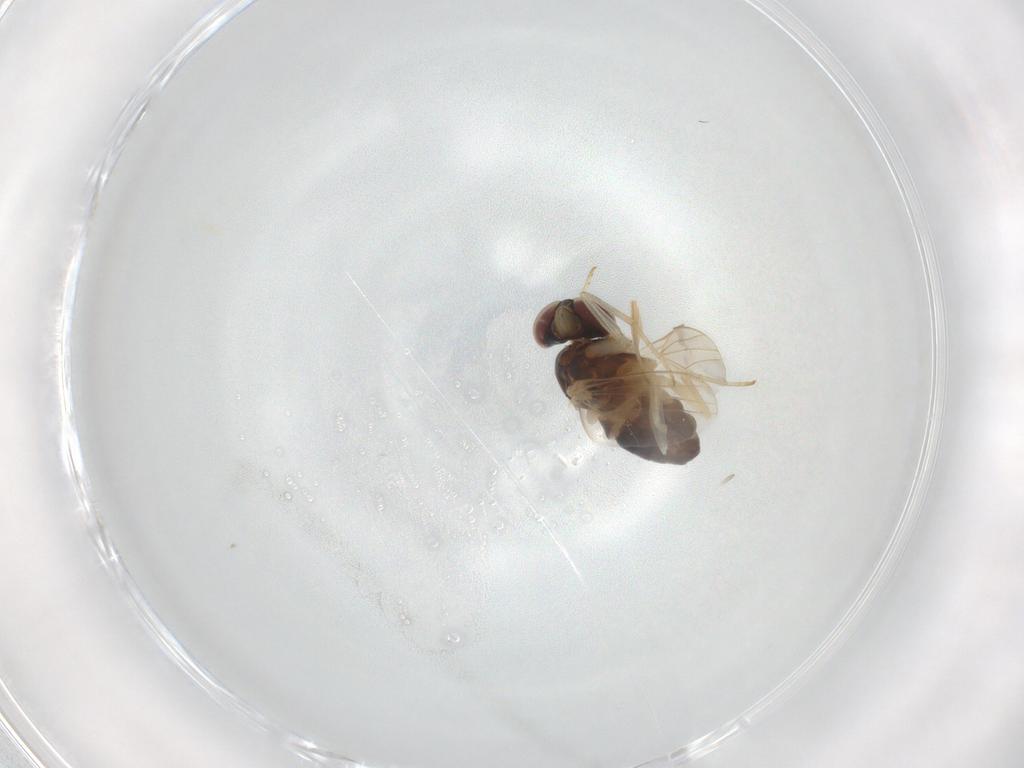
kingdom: Animalia
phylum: Arthropoda
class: Insecta
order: Diptera
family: Dolichopodidae
